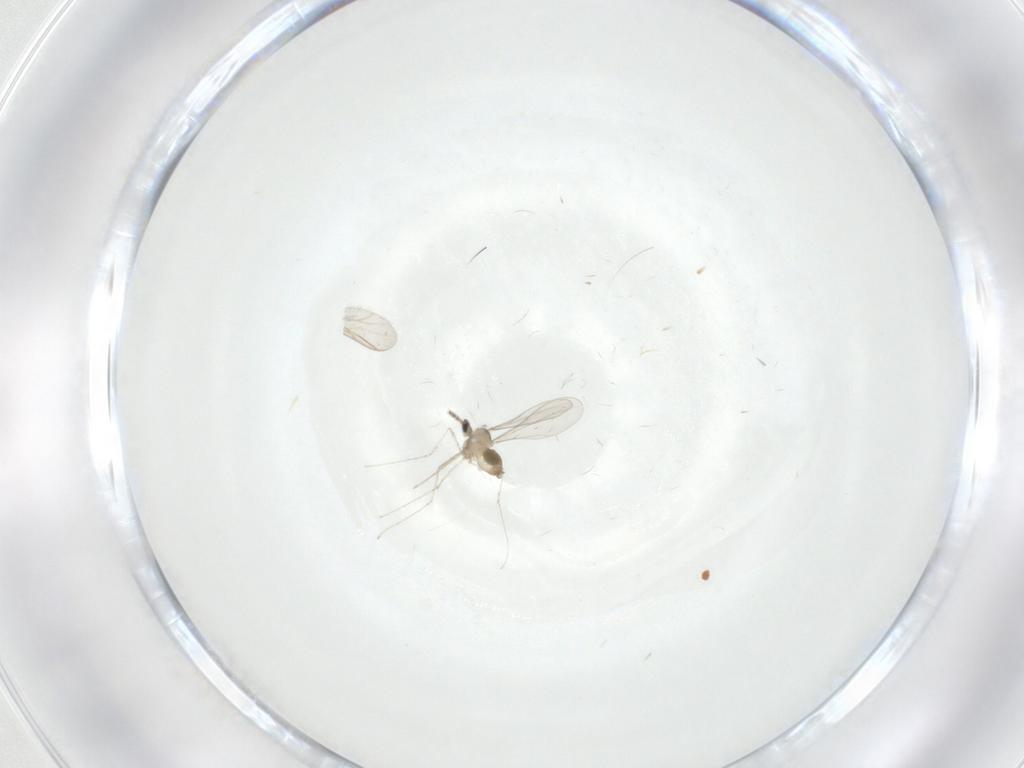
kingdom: Animalia
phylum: Arthropoda
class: Insecta
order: Diptera
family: Cecidomyiidae
